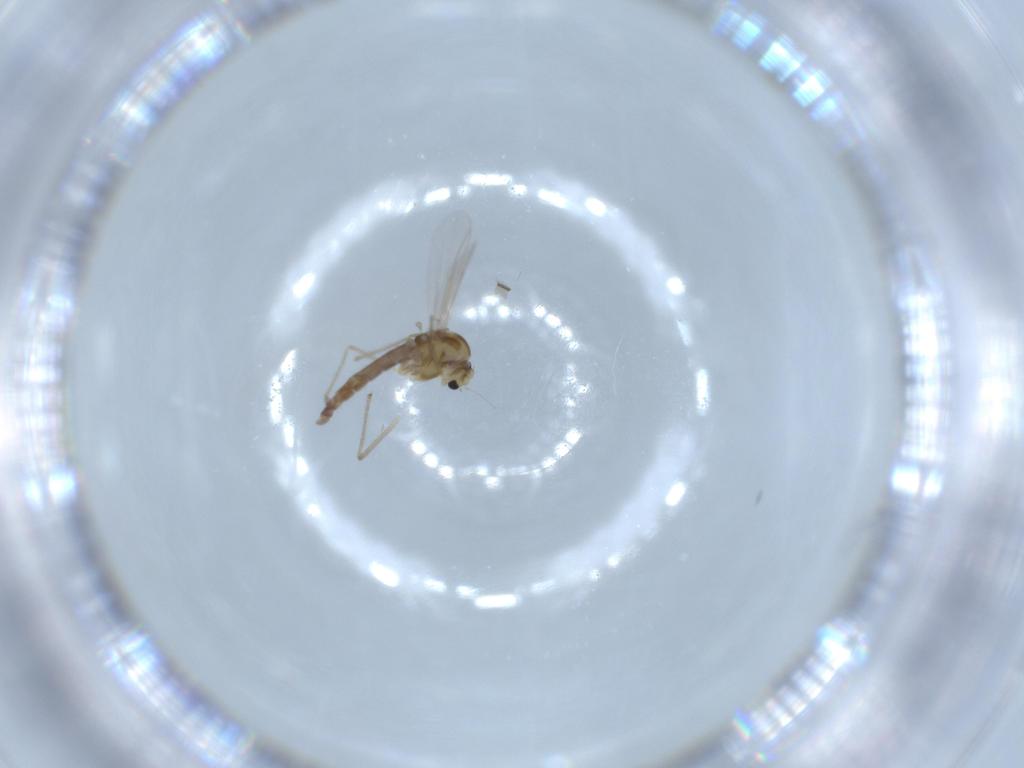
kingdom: Animalia
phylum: Arthropoda
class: Insecta
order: Diptera
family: Chironomidae
